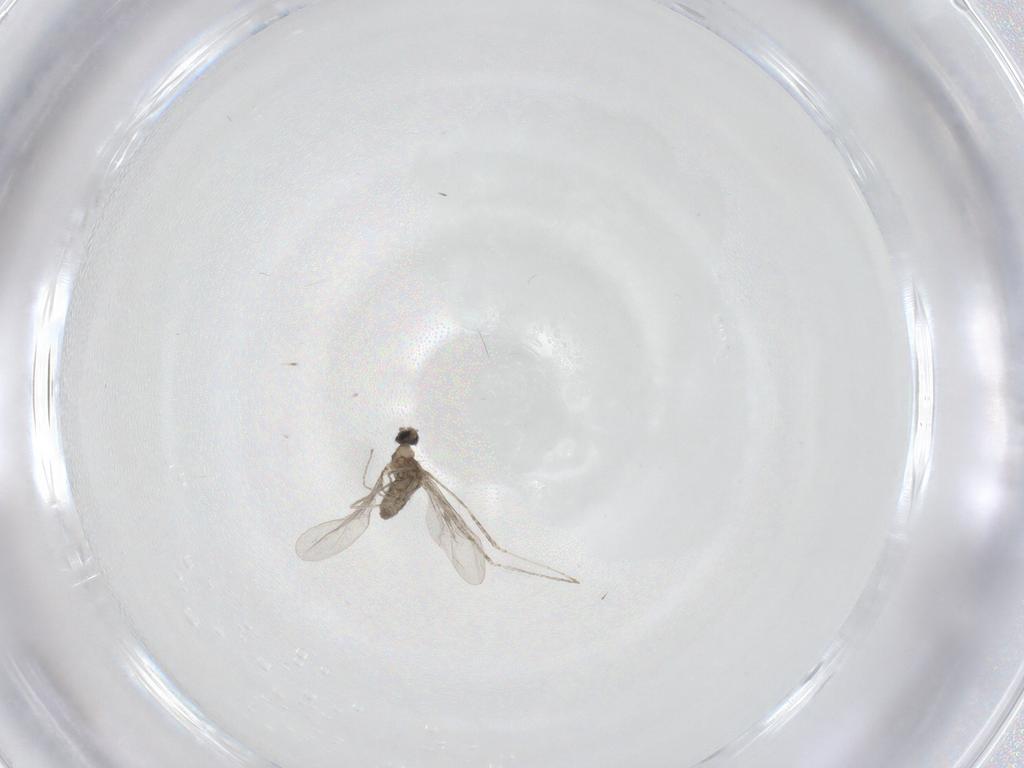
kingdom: Animalia
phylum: Arthropoda
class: Insecta
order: Diptera
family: Cecidomyiidae
